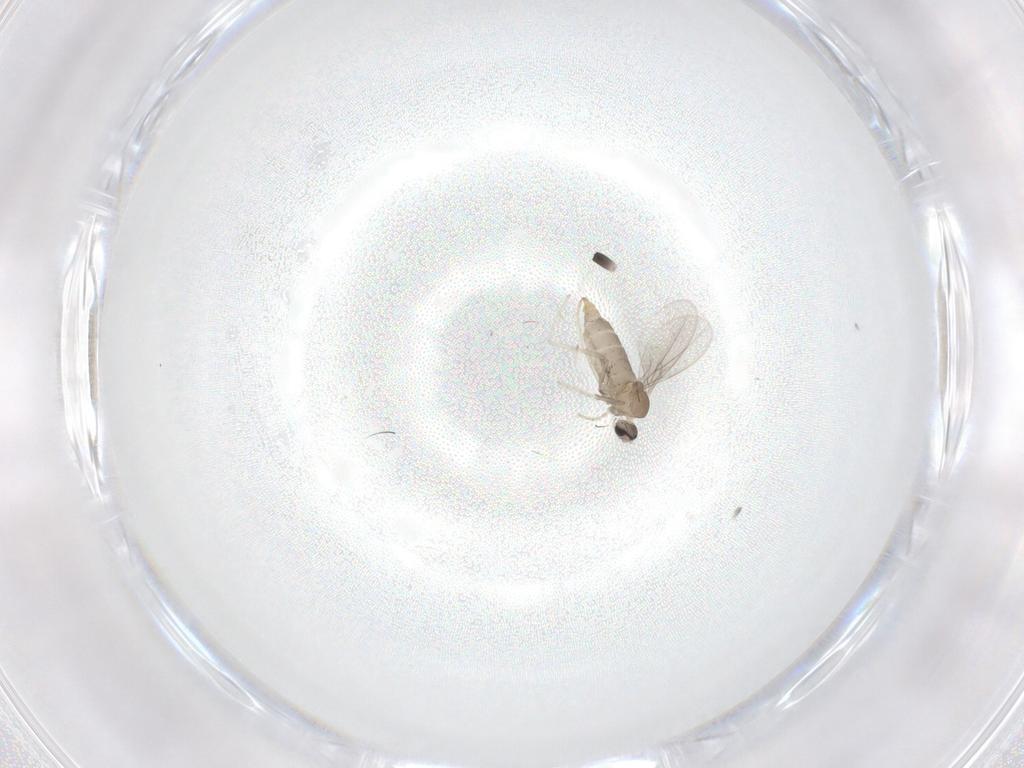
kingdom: Animalia
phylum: Arthropoda
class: Insecta
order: Diptera
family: Cecidomyiidae
